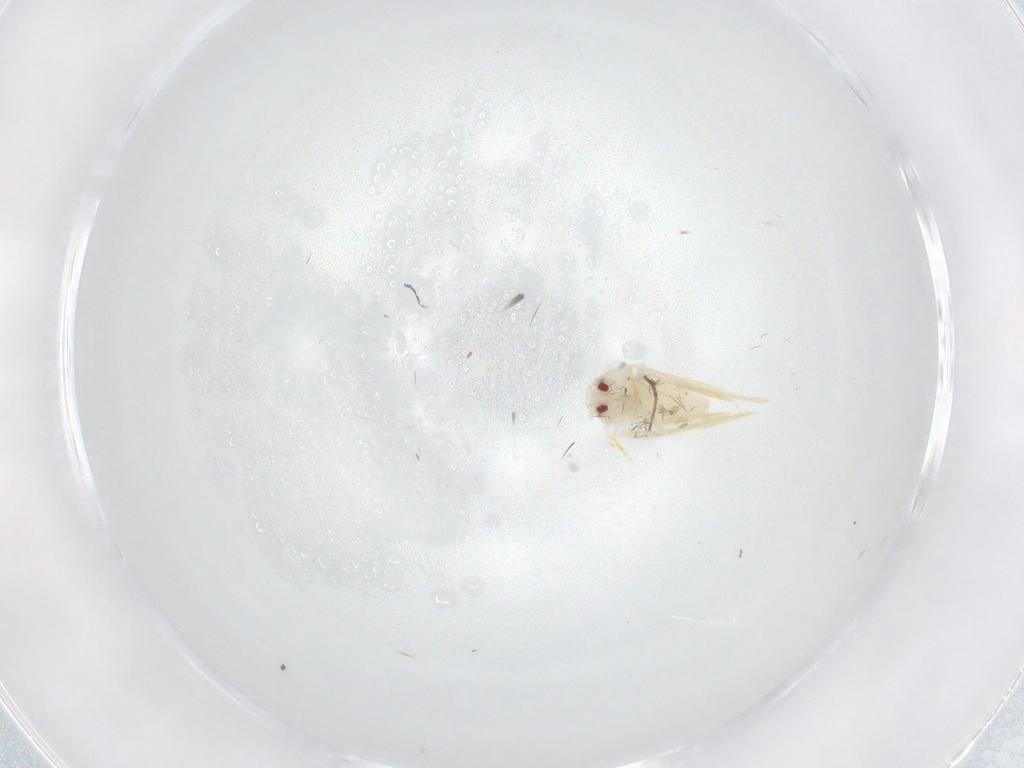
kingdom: Animalia
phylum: Arthropoda
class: Insecta
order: Hemiptera
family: Aleyrodidae
